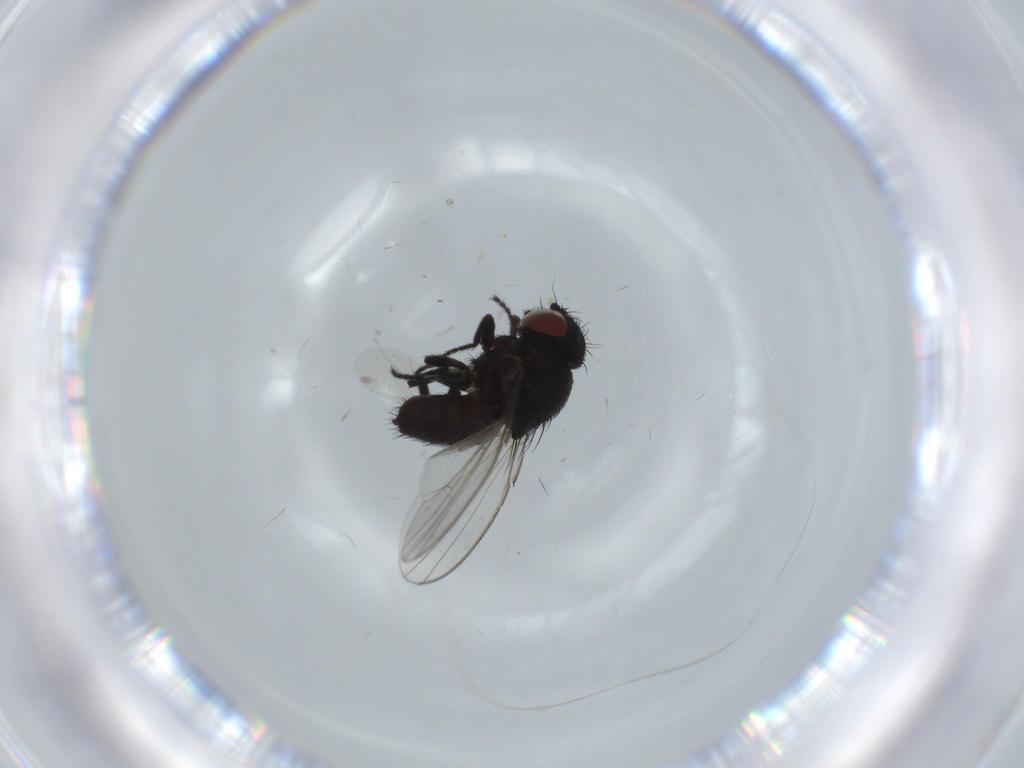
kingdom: Animalia
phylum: Arthropoda
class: Insecta
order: Diptera
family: Milichiidae
